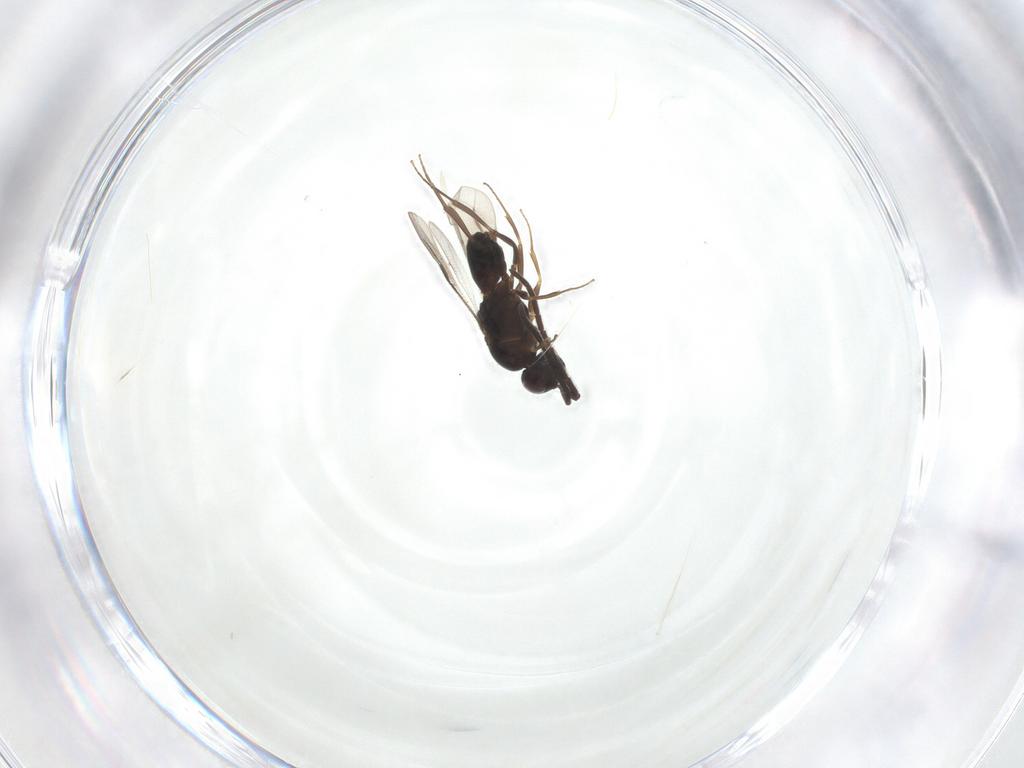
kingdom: Animalia
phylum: Arthropoda
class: Insecta
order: Hymenoptera
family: Megaspilidae
